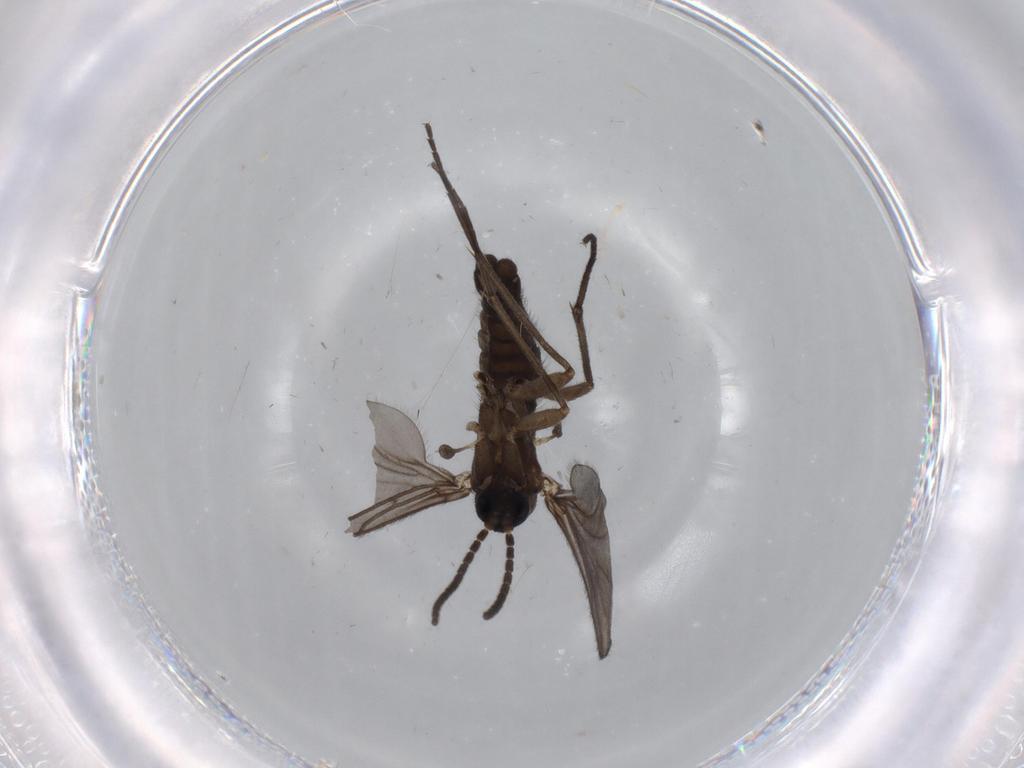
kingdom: Animalia
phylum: Arthropoda
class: Insecta
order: Diptera
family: Sciaridae
